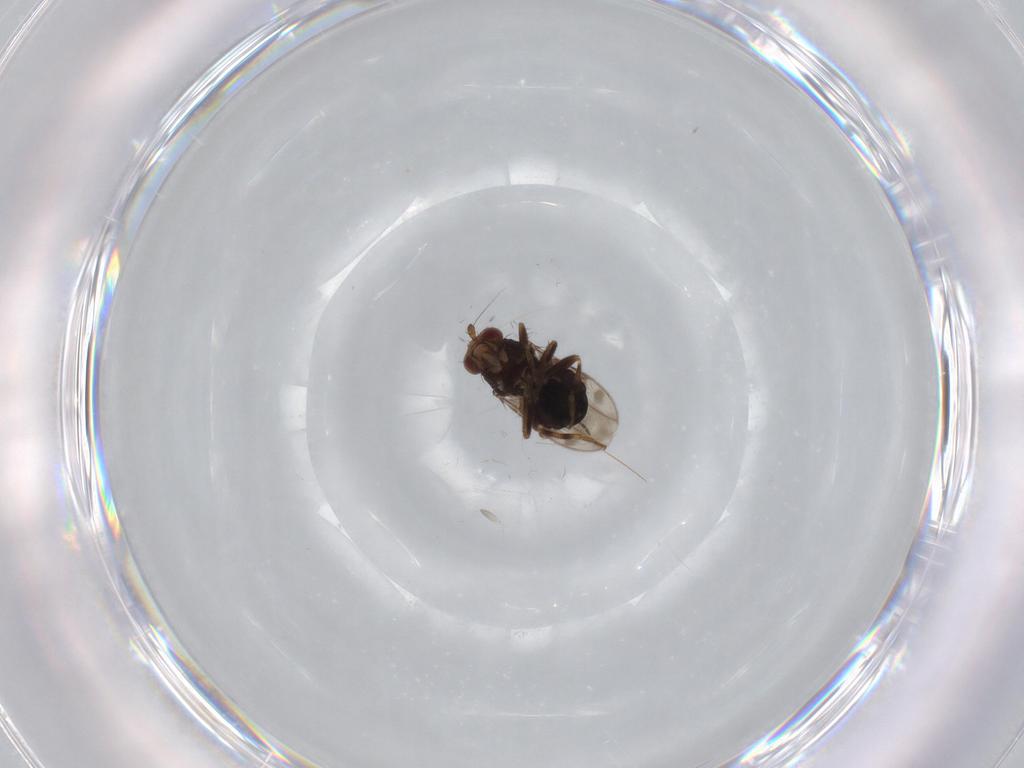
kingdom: Animalia
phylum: Arthropoda
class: Insecta
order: Diptera
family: Sphaeroceridae
